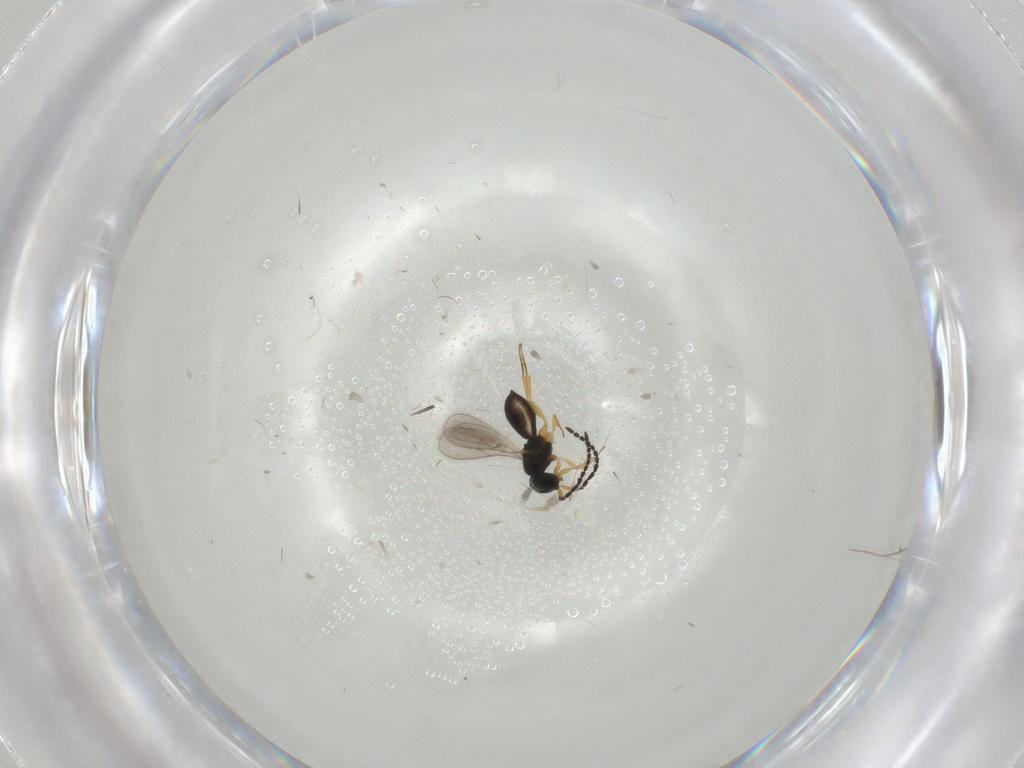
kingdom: Animalia
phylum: Arthropoda
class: Insecta
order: Hymenoptera
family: Scelionidae
